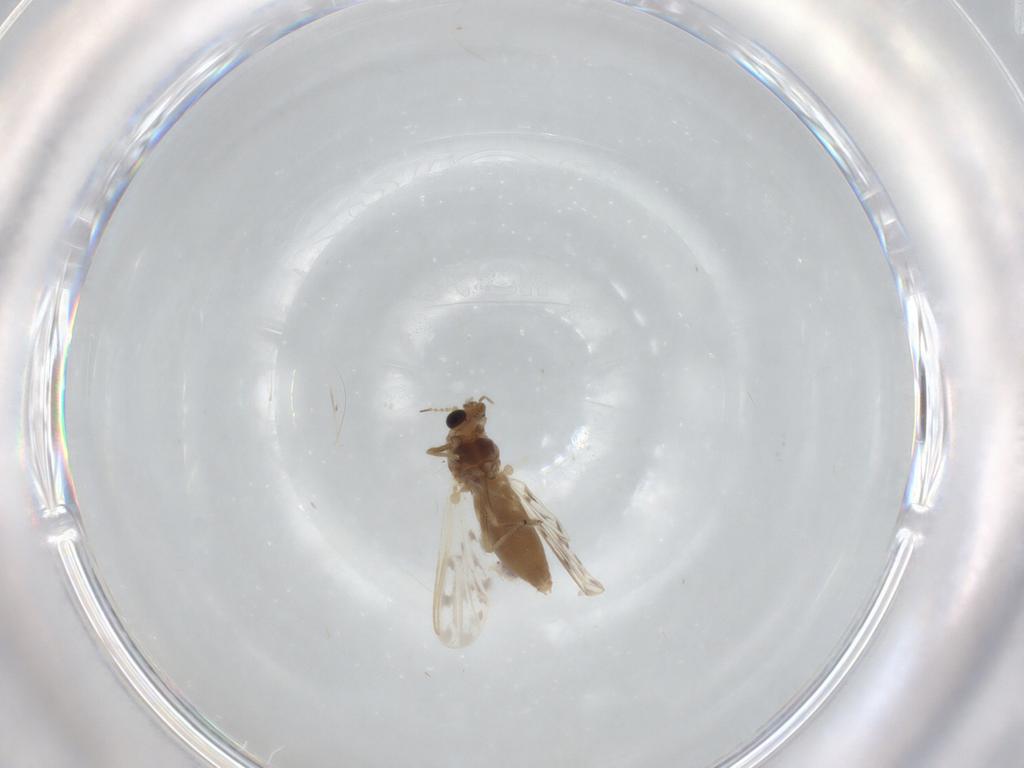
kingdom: Animalia
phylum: Arthropoda
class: Insecta
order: Diptera
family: Chironomidae
